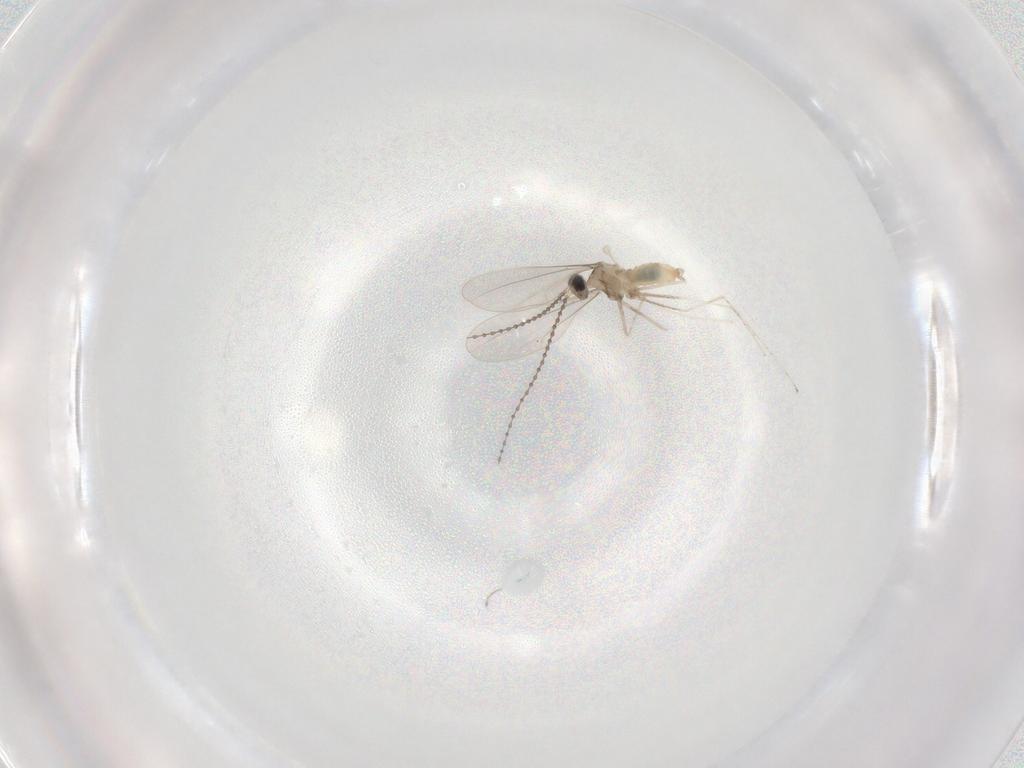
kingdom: Animalia
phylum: Arthropoda
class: Insecta
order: Diptera
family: Cecidomyiidae
